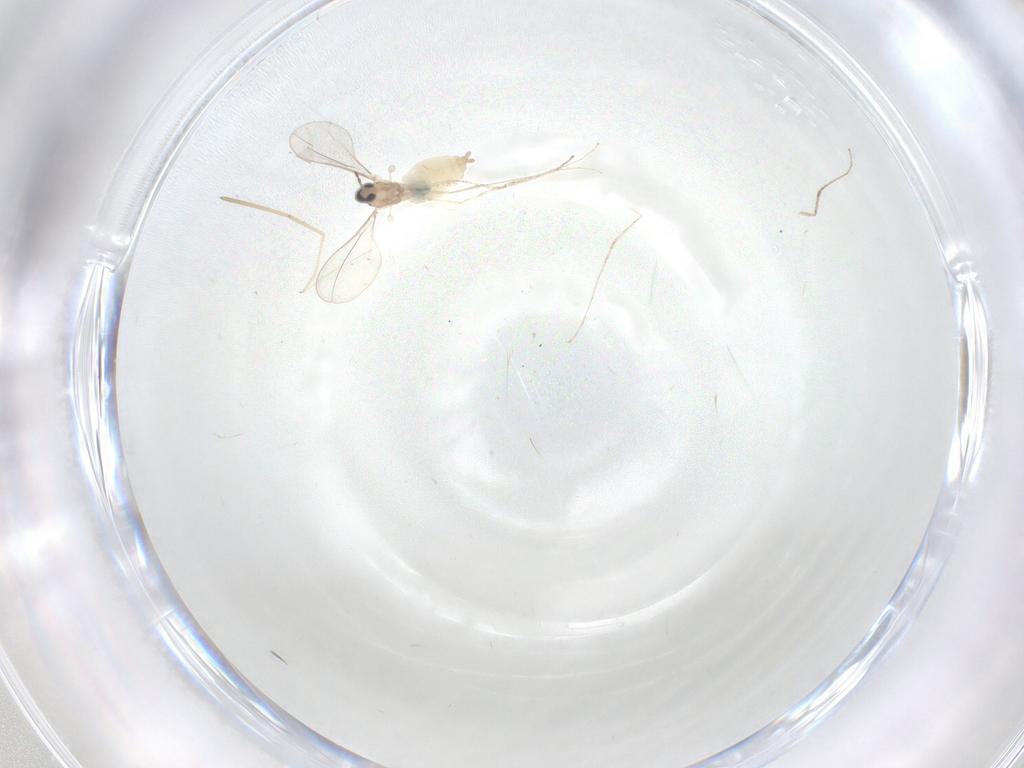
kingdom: Animalia
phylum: Arthropoda
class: Insecta
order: Diptera
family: Cecidomyiidae
